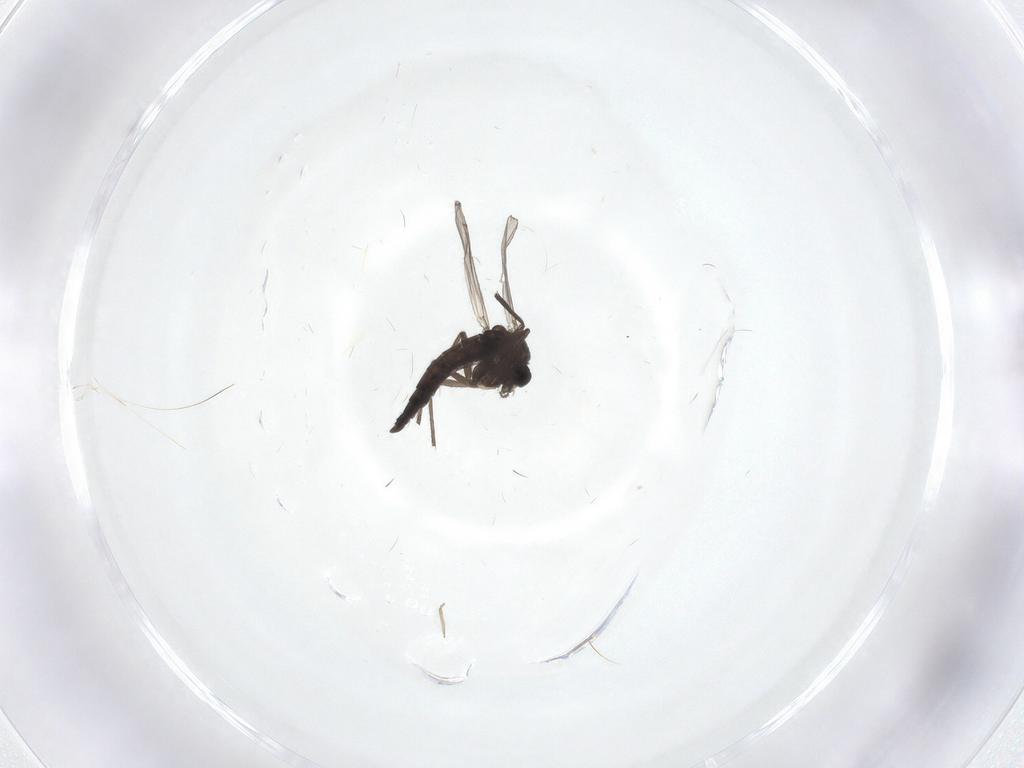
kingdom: Animalia
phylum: Arthropoda
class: Insecta
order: Diptera
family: Chironomidae
